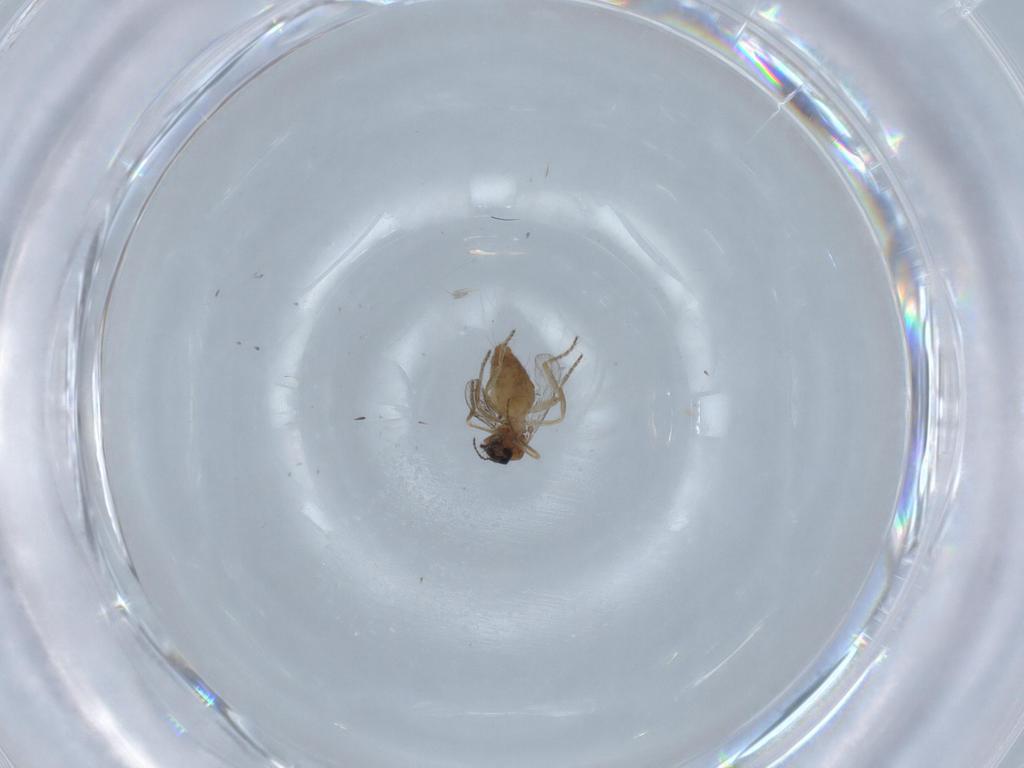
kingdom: Animalia
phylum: Arthropoda
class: Insecta
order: Diptera
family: Ceratopogonidae
